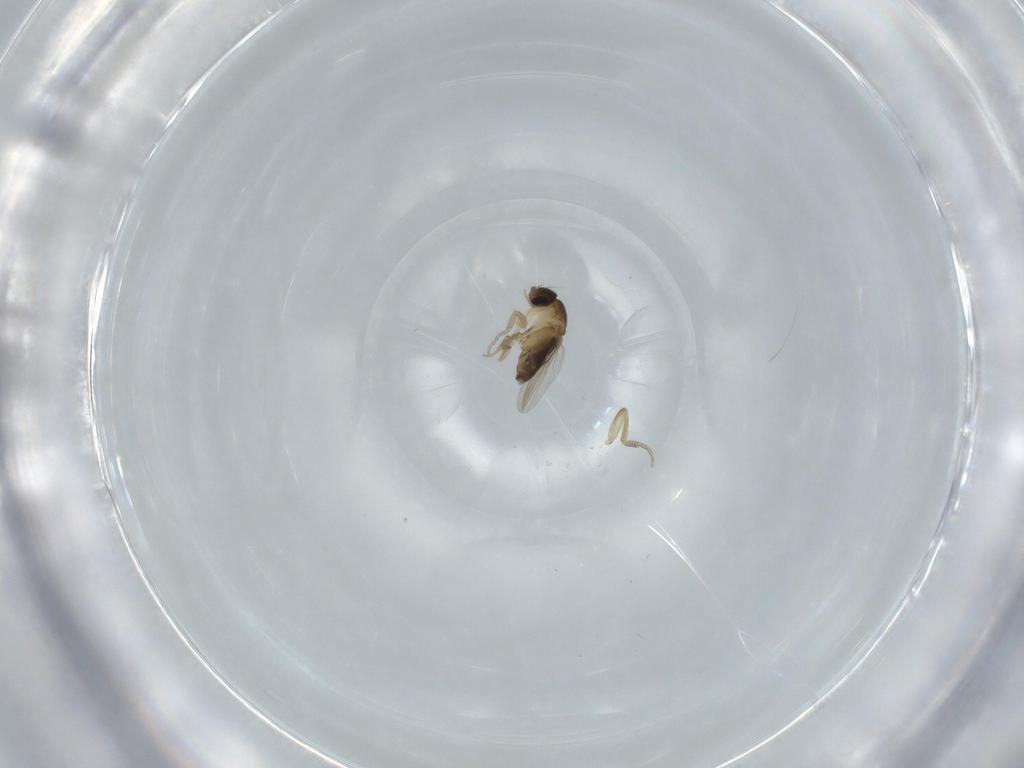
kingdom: Animalia
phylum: Arthropoda
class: Insecta
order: Diptera
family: Phoridae
